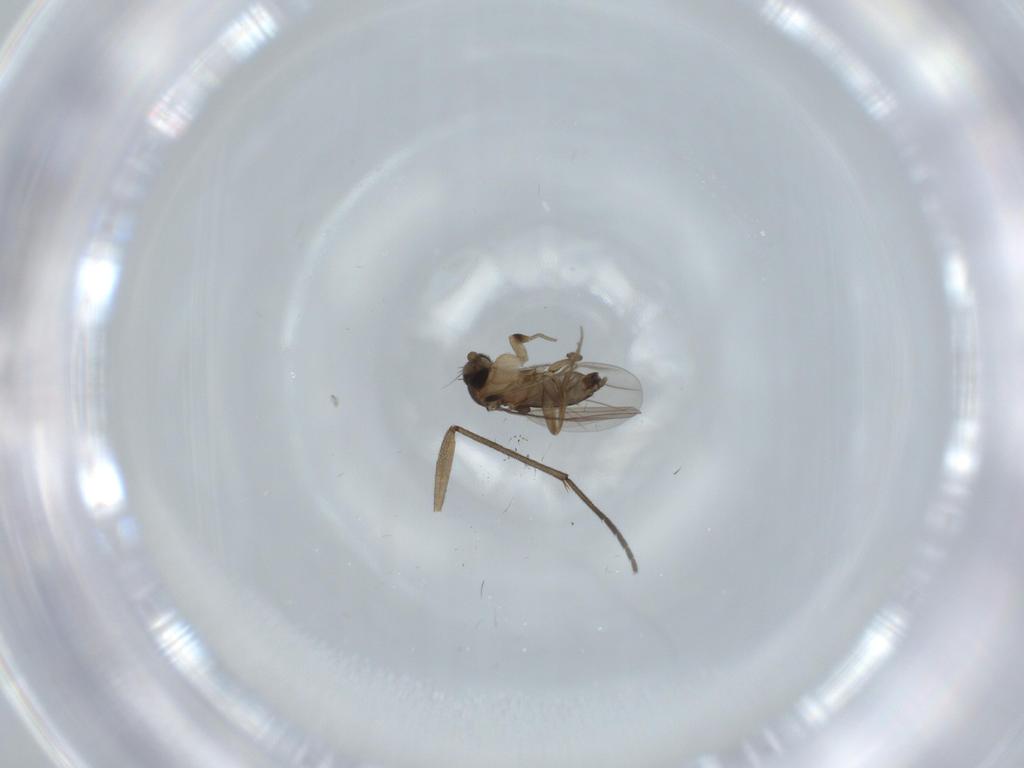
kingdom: Animalia
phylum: Arthropoda
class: Insecta
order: Diptera
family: Phoridae
